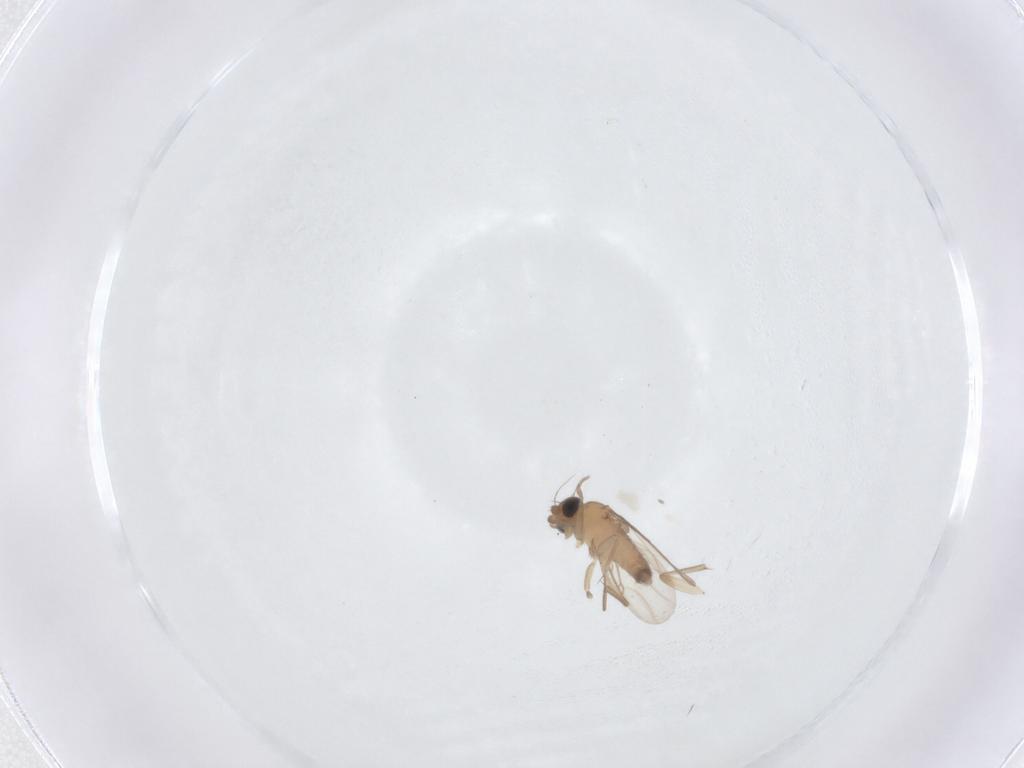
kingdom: Animalia
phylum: Arthropoda
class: Insecta
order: Diptera
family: Phoridae
